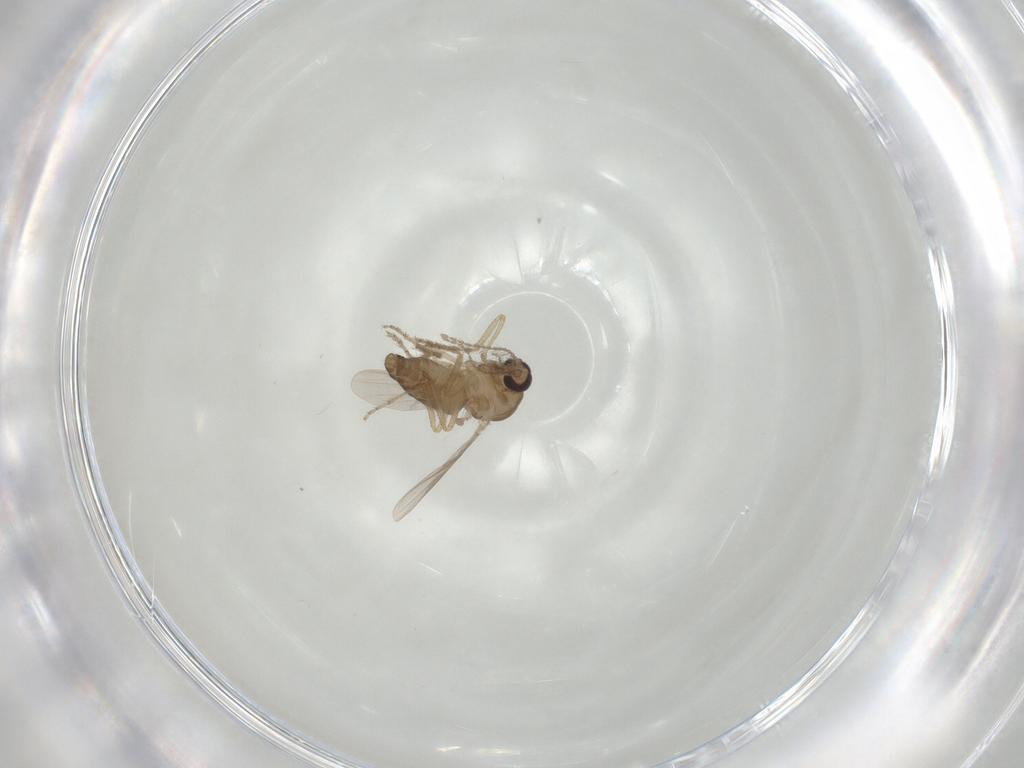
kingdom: Animalia
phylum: Arthropoda
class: Insecta
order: Diptera
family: Ceratopogonidae
